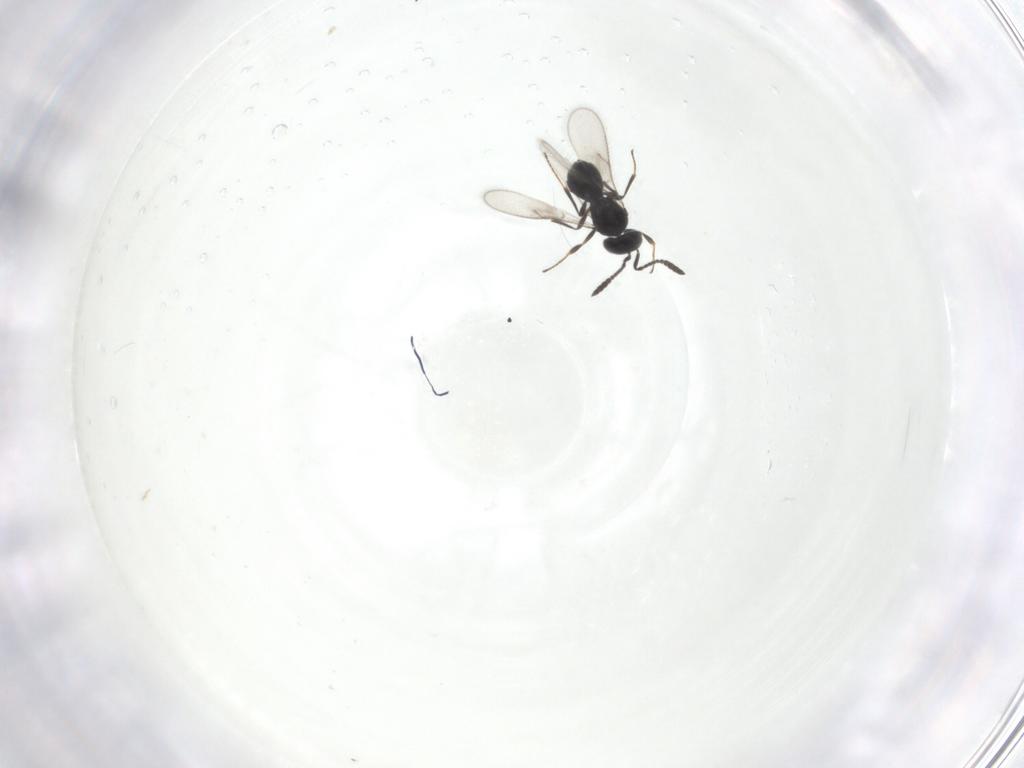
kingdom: Animalia
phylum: Arthropoda
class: Insecta
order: Hymenoptera
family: Scelionidae
